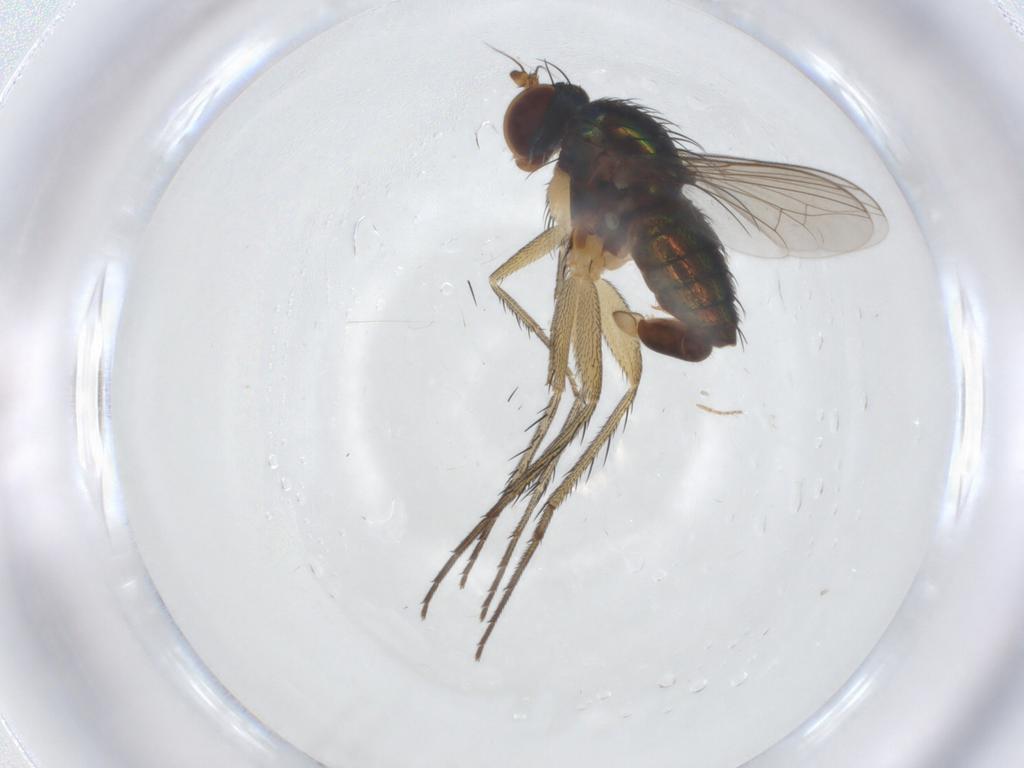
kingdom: Animalia
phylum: Arthropoda
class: Insecta
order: Diptera
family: Dolichopodidae
